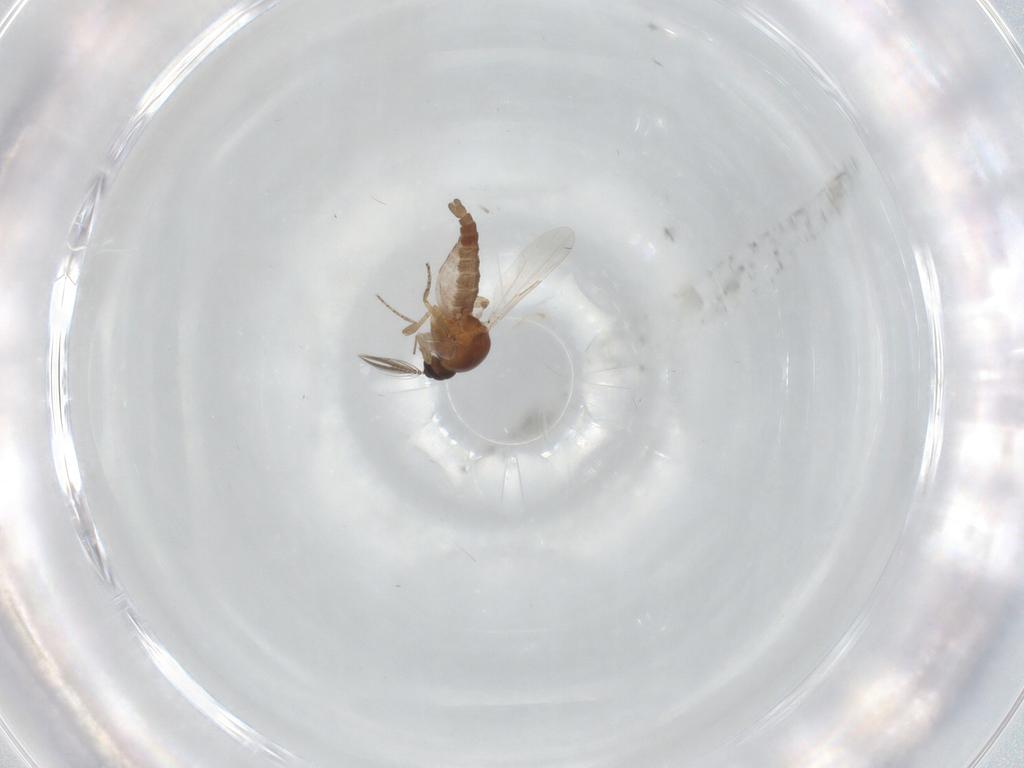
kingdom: Animalia
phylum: Arthropoda
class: Insecta
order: Diptera
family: Ceratopogonidae
